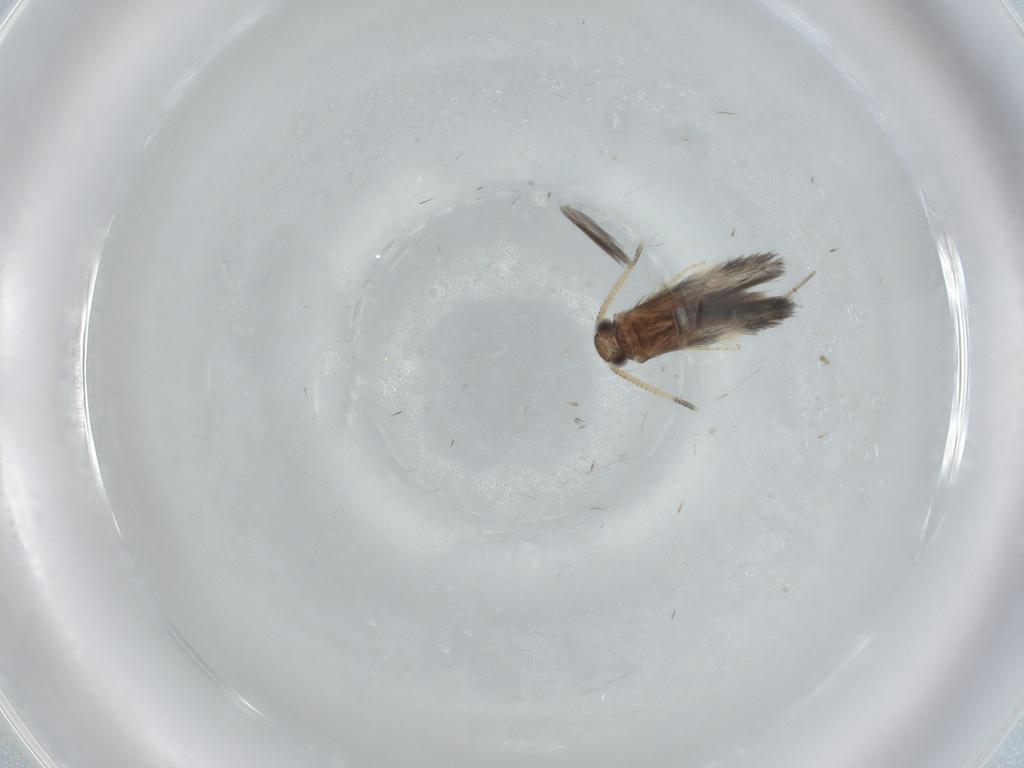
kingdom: Animalia
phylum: Arthropoda
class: Insecta
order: Trichoptera
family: Hydroptilidae
